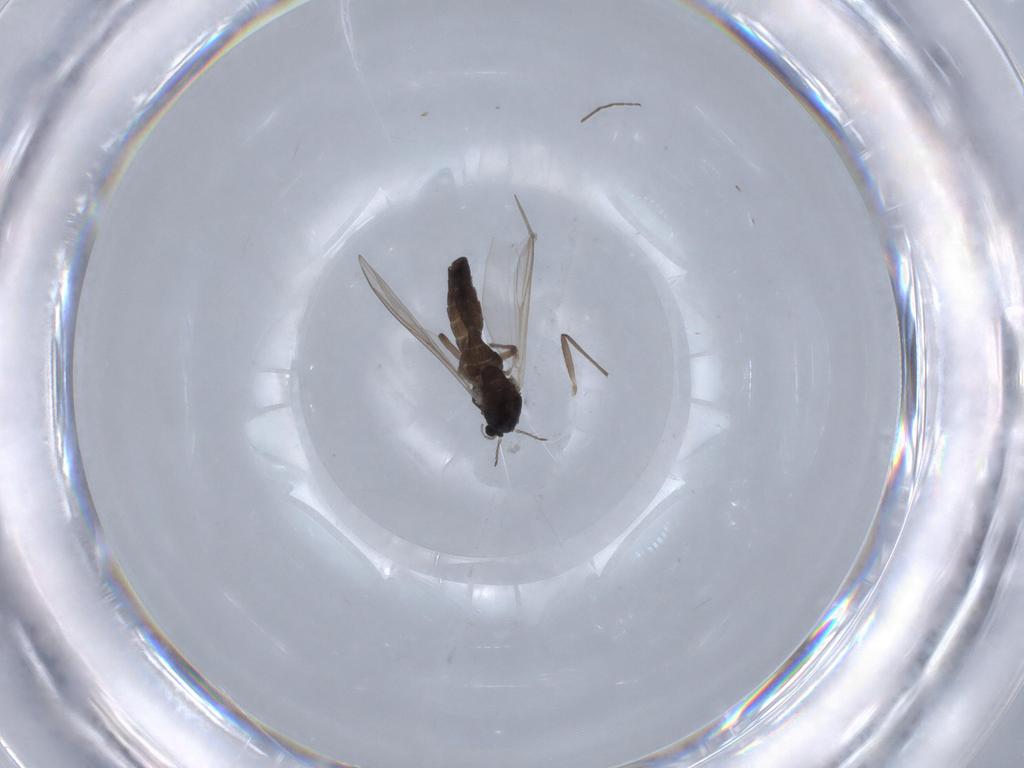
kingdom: Animalia
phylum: Arthropoda
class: Insecta
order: Diptera
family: Chironomidae
